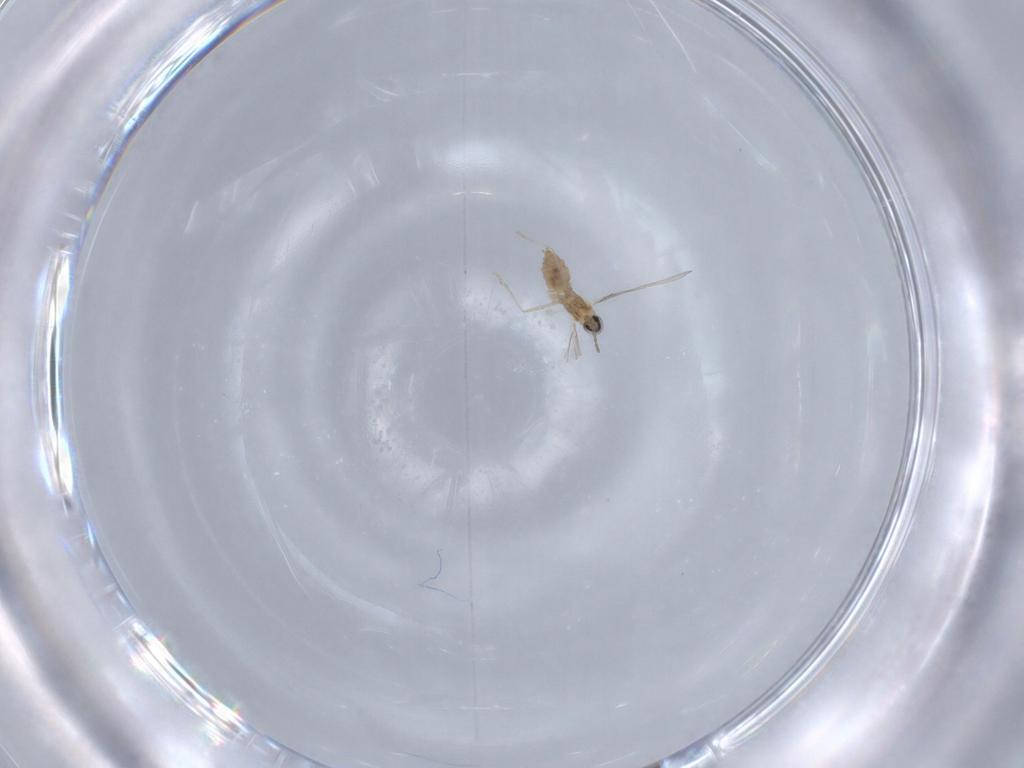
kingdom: Animalia
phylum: Arthropoda
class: Insecta
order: Diptera
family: Cecidomyiidae
